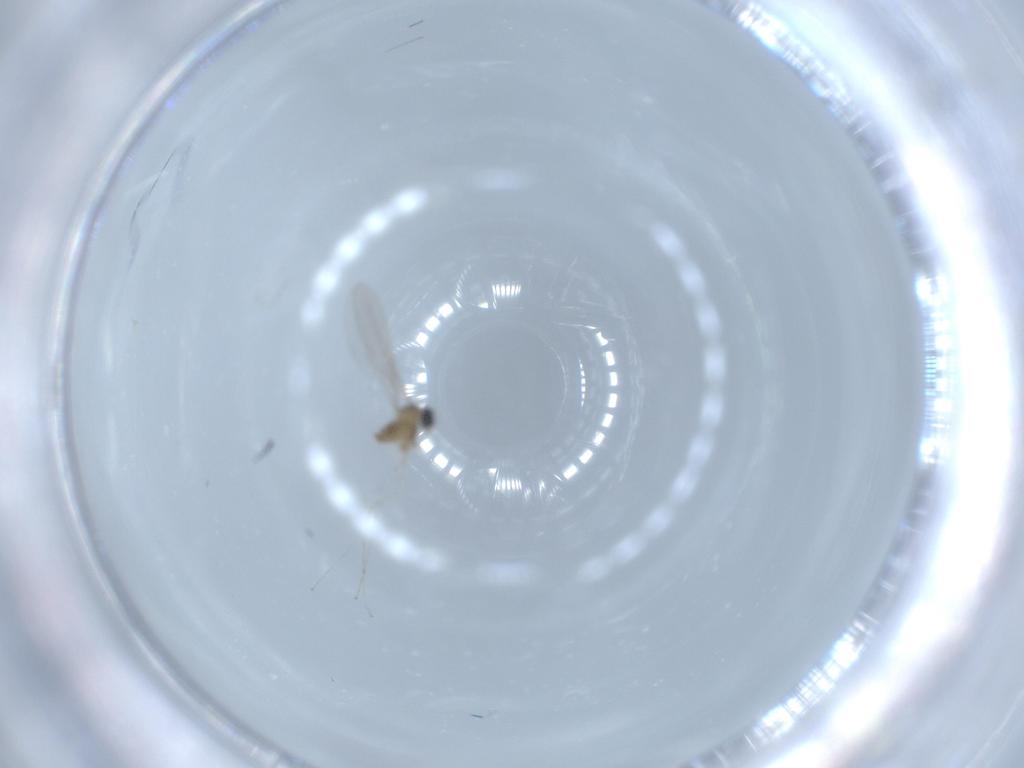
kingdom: Animalia
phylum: Arthropoda
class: Insecta
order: Diptera
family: Cecidomyiidae
